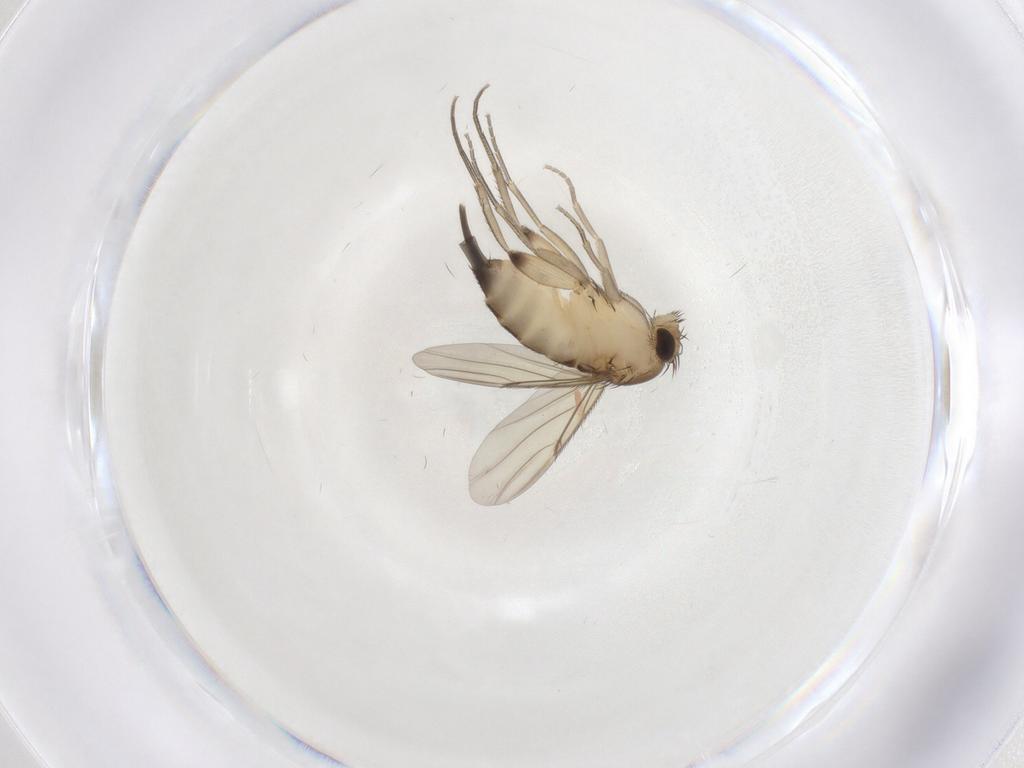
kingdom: Animalia
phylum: Arthropoda
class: Insecta
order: Diptera
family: Phoridae
